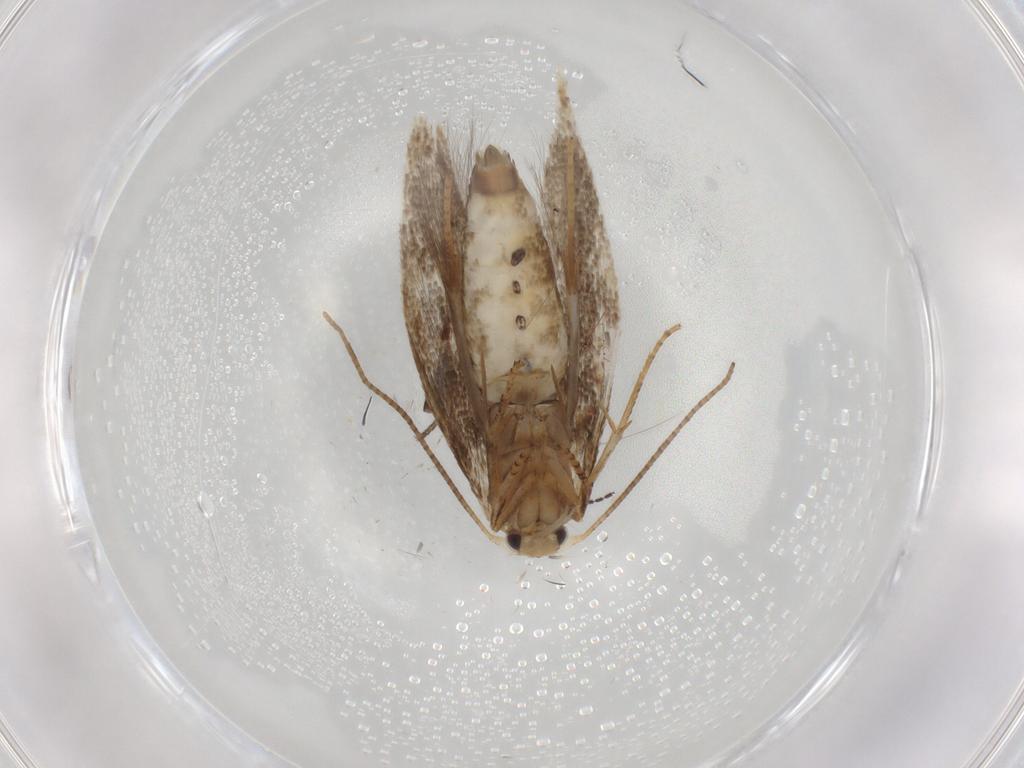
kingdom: Animalia
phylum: Arthropoda
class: Insecta
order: Lepidoptera
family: Bucculatricidae
